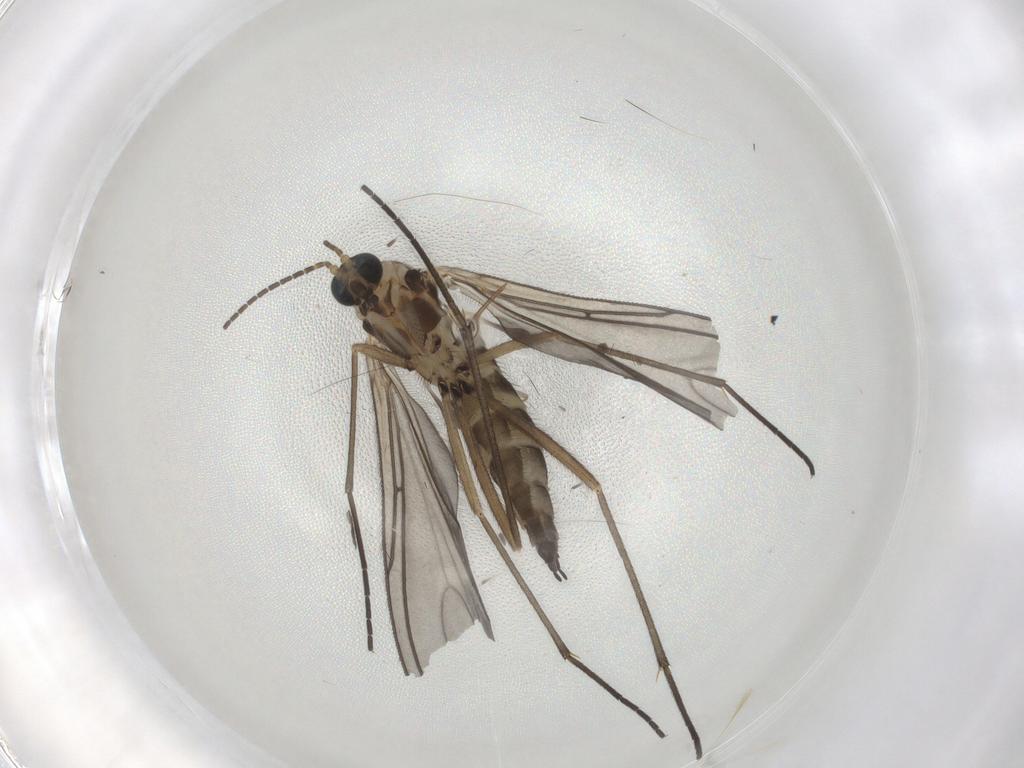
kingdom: Animalia
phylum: Arthropoda
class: Insecta
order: Diptera
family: Sciaridae
